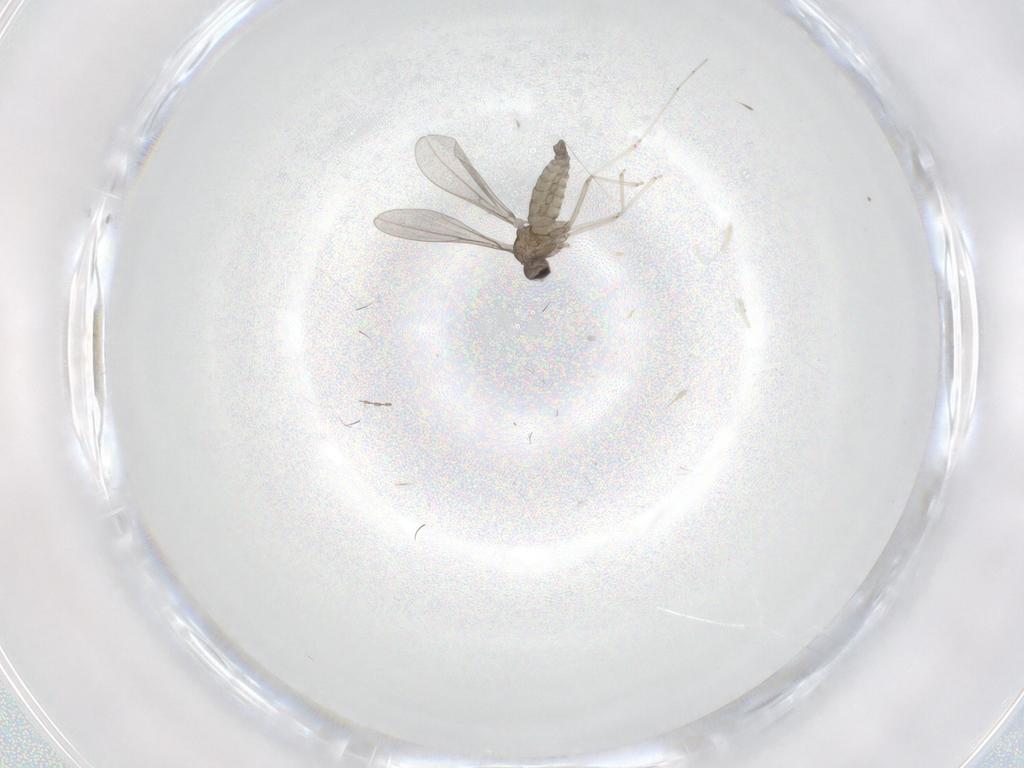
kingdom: Animalia
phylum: Arthropoda
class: Insecta
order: Diptera
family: Cecidomyiidae
